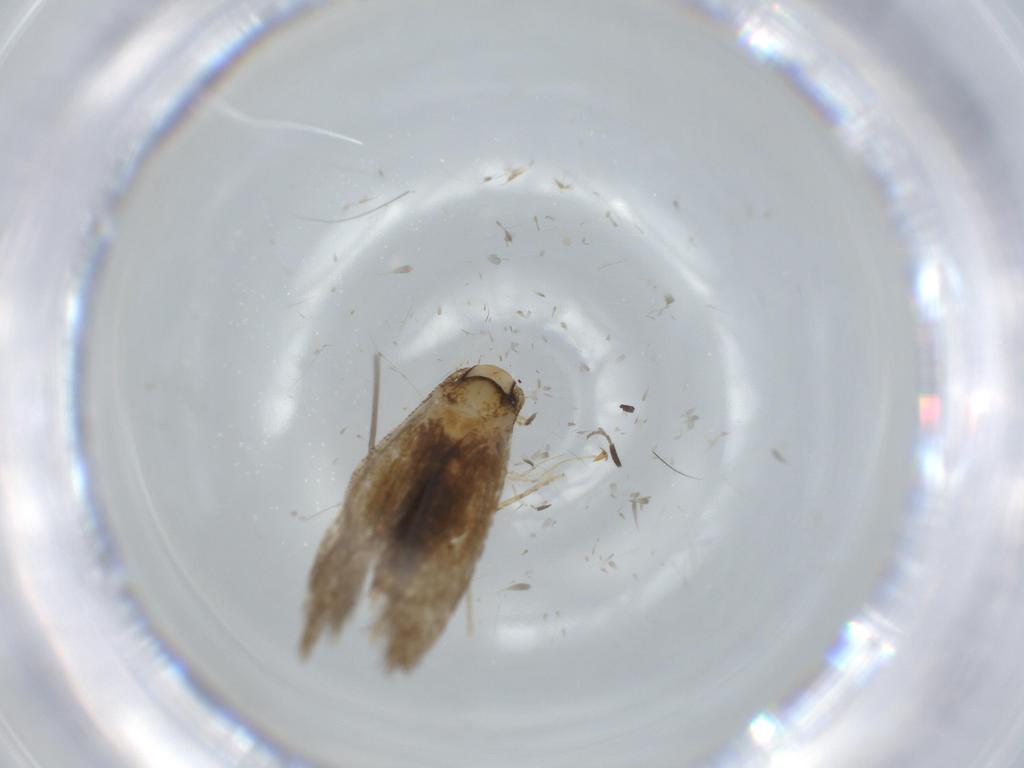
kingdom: Animalia
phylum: Arthropoda
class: Insecta
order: Lepidoptera
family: Tineidae
